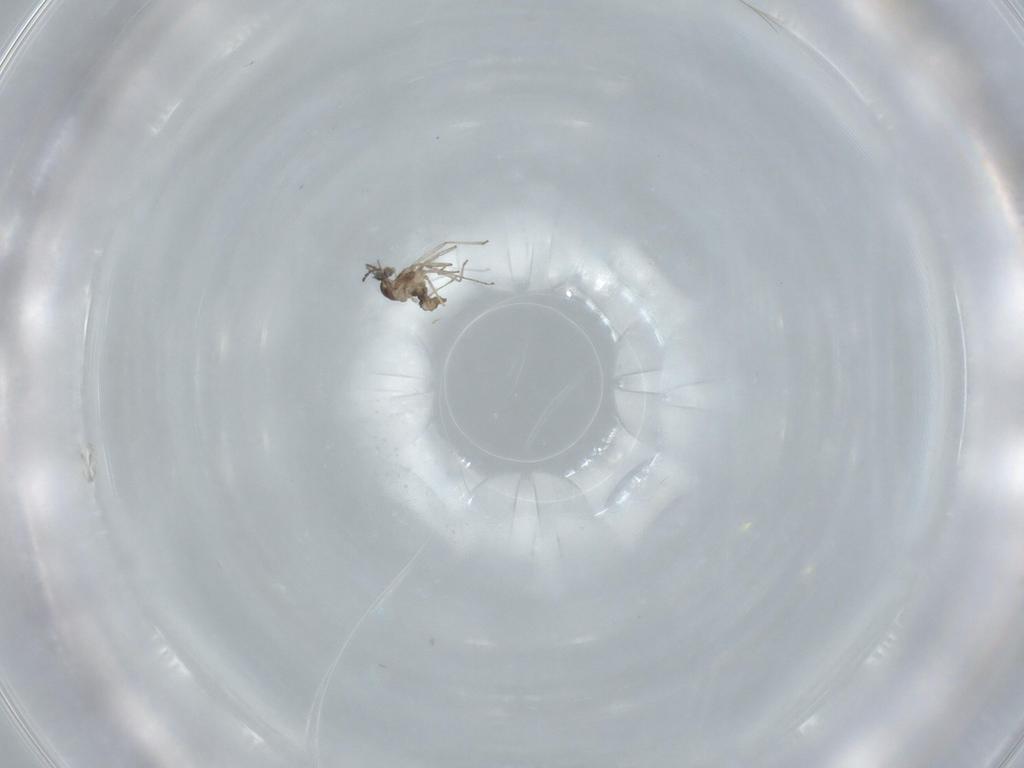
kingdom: Animalia
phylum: Arthropoda
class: Insecta
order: Diptera
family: Cecidomyiidae
